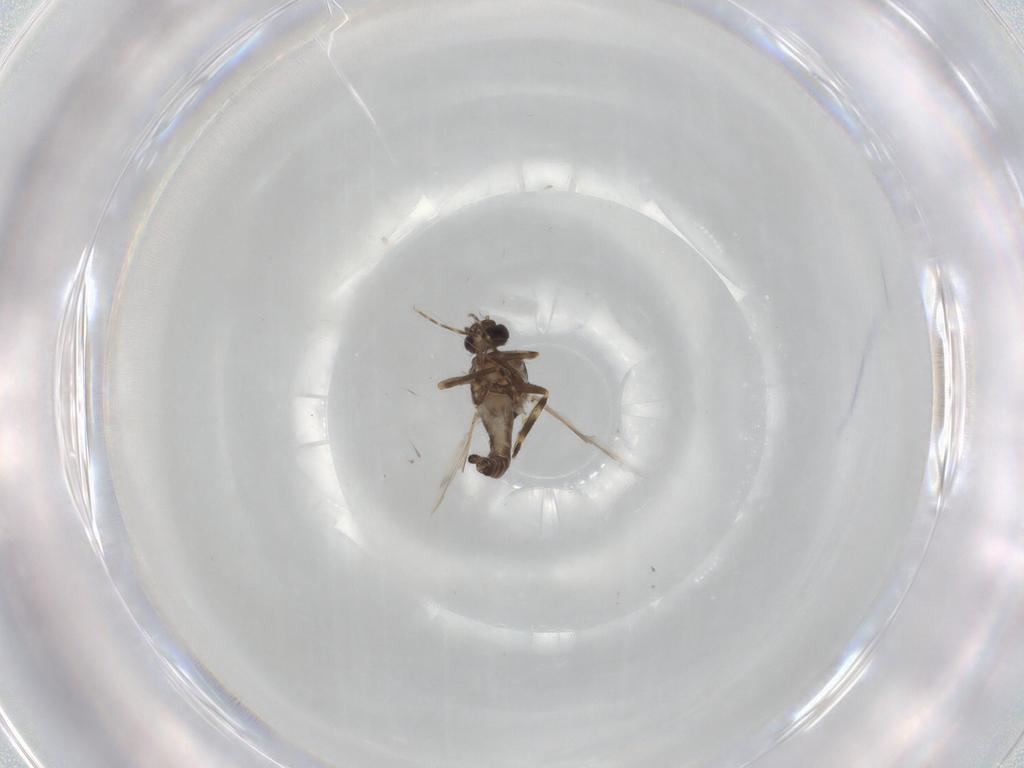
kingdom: Animalia
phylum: Arthropoda
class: Insecta
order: Diptera
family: Ceratopogonidae
